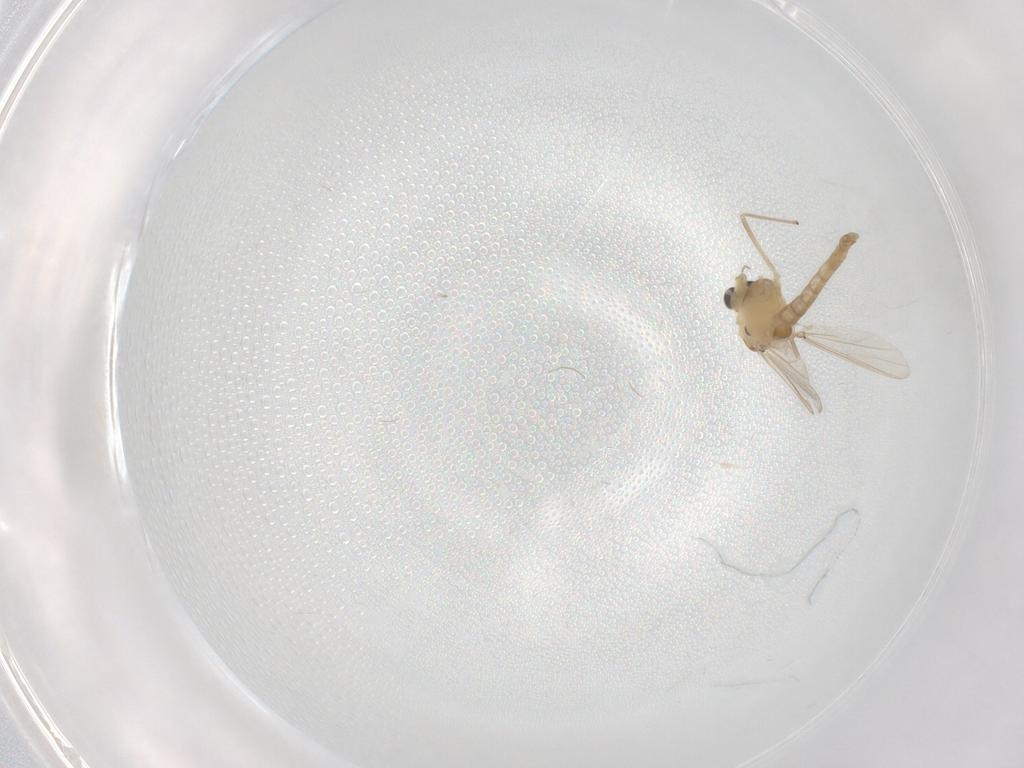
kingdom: Animalia
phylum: Arthropoda
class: Insecta
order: Diptera
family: Chironomidae
